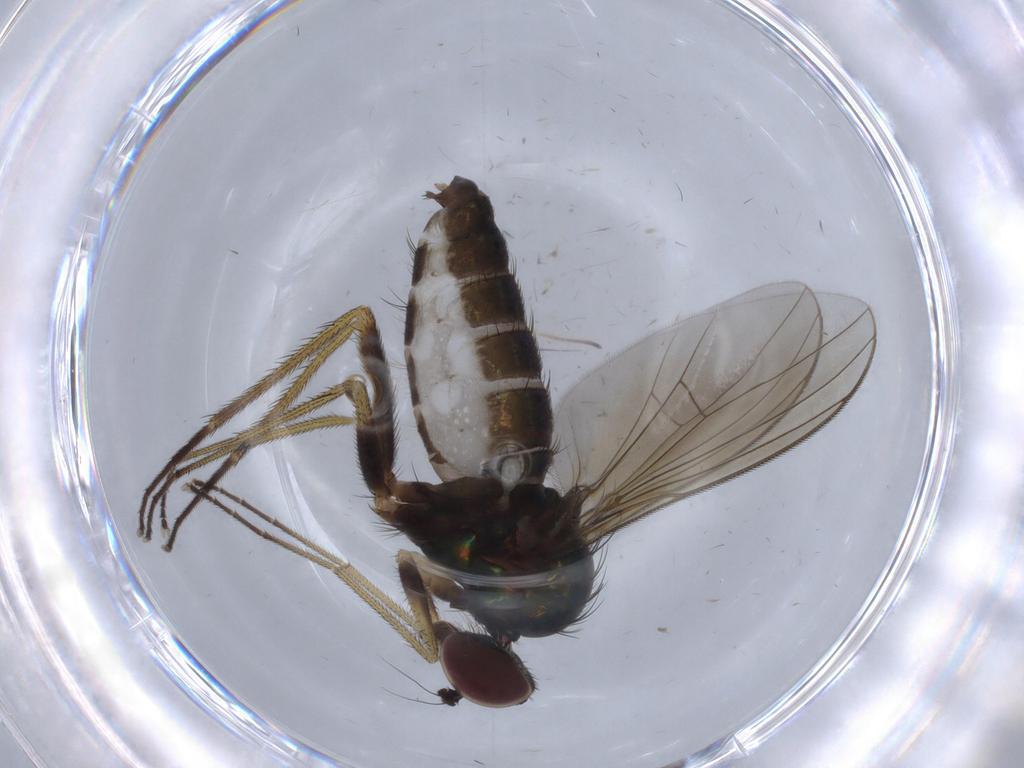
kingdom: Animalia
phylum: Arthropoda
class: Insecta
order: Diptera
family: Dolichopodidae
